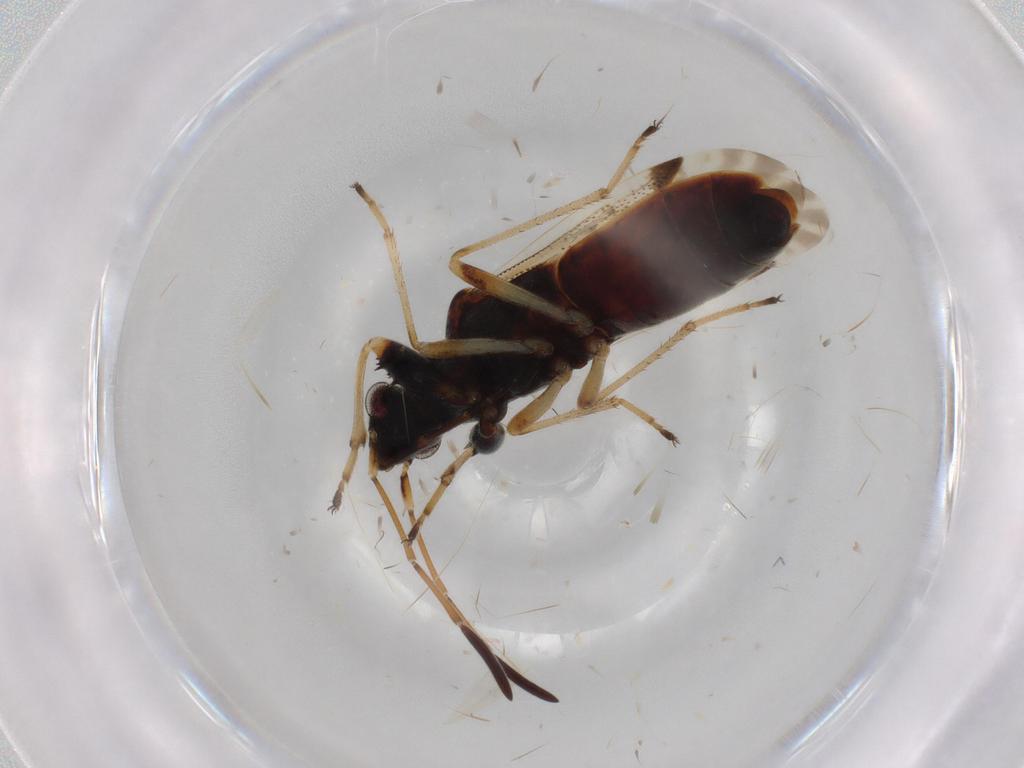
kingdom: Animalia
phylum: Arthropoda
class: Insecta
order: Hemiptera
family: Rhyparochromidae
